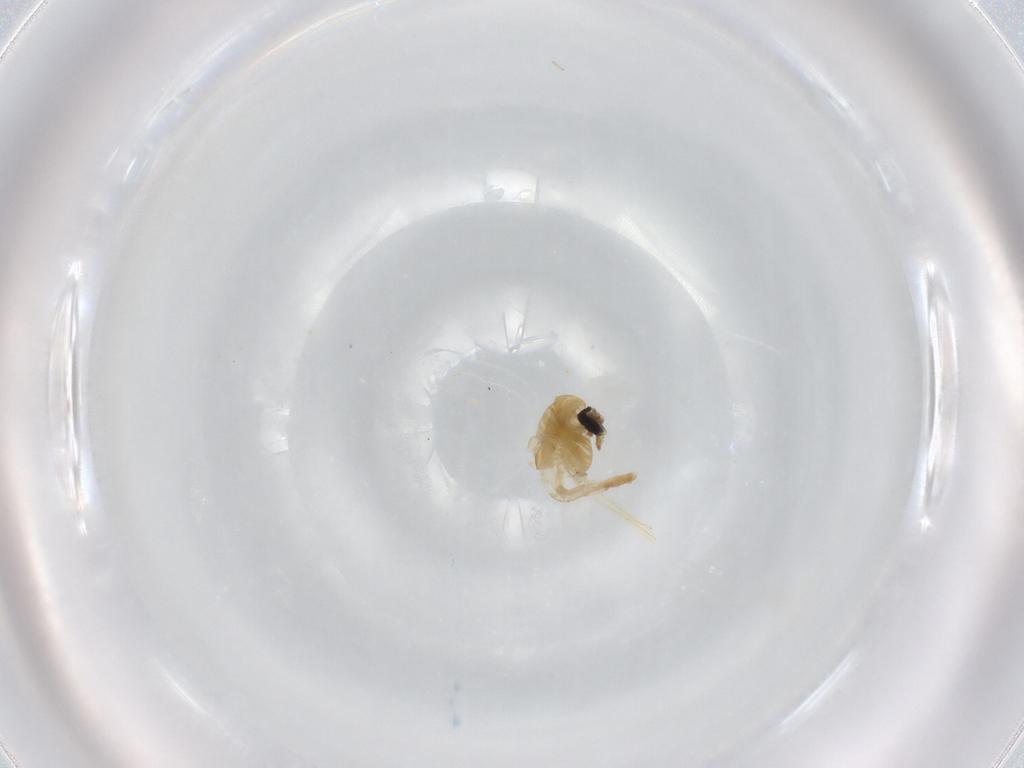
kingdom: Animalia
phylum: Arthropoda
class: Insecta
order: Diptera
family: Glossinidae
